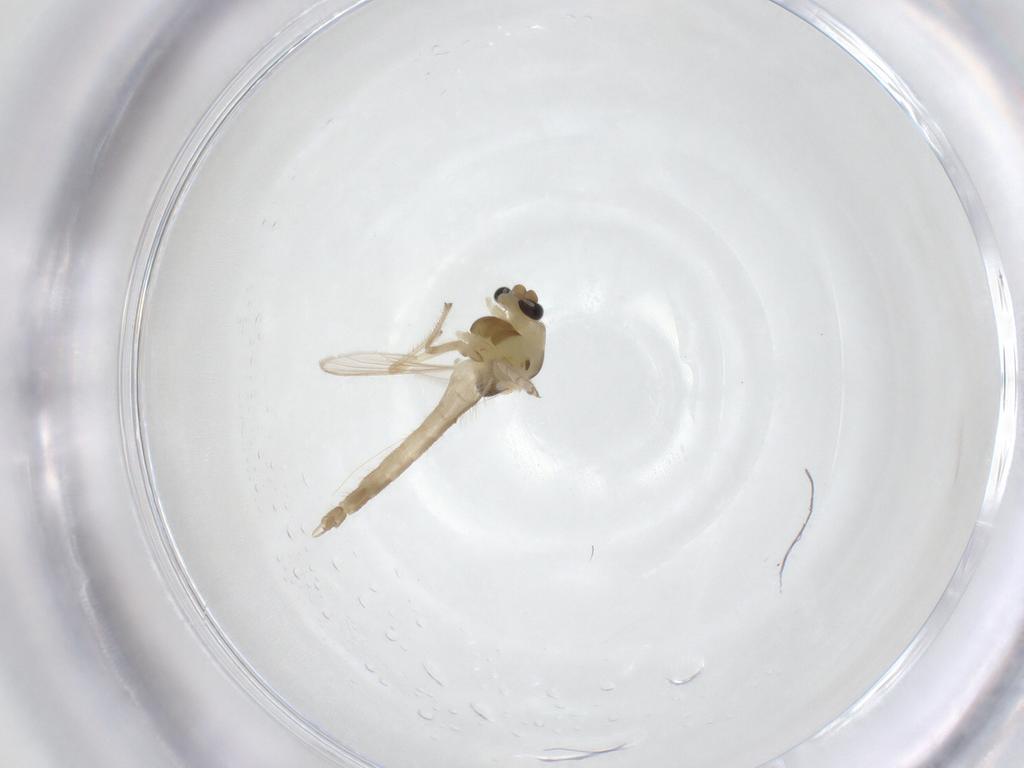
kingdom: Animalia
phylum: Arthropoda
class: Insecta
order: Diptera
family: Chironomidae
